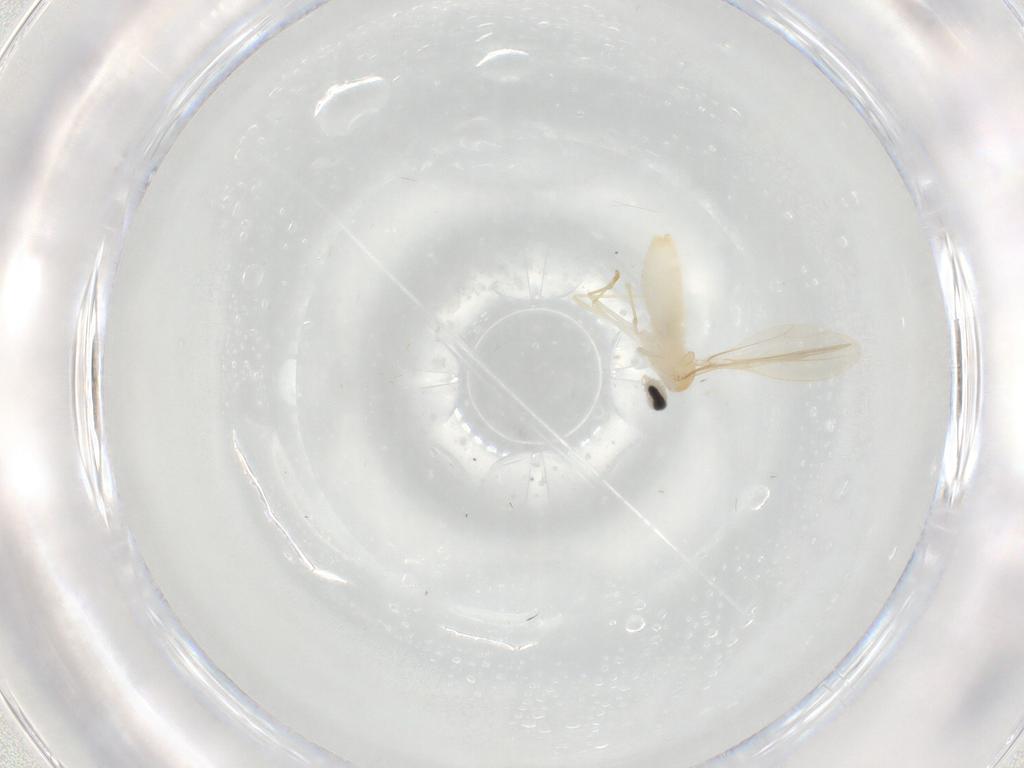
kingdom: Animalia
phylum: Arthropoda
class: Insecta
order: Diptera
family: Cecidomyiidae
